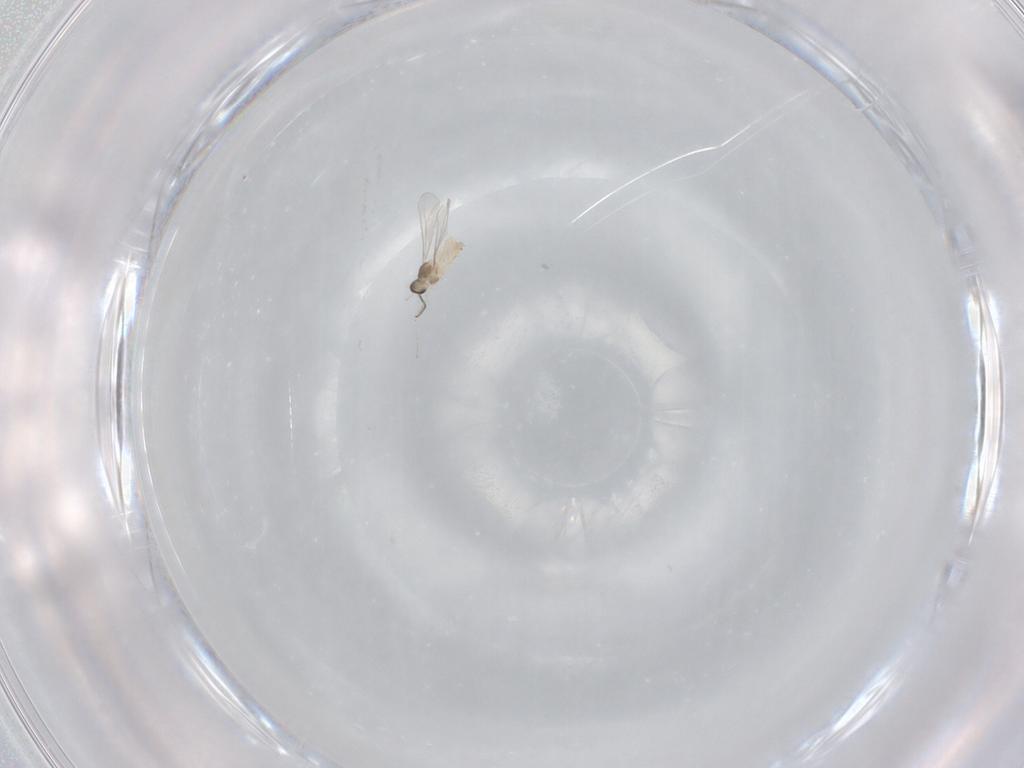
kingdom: Animalia
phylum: Arthropoda
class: Insecta
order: Diptera
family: Cecidomyiidae
